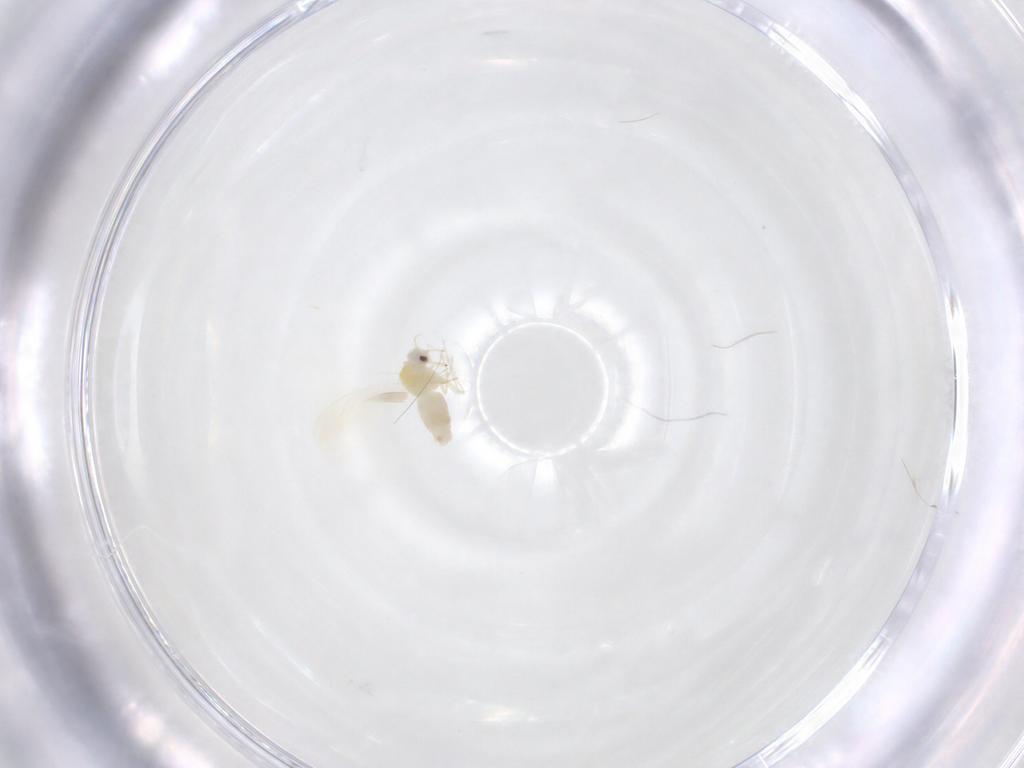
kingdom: Animalia
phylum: Arthropoda
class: Insecta
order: Hemiptera
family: Aleyrodidae
